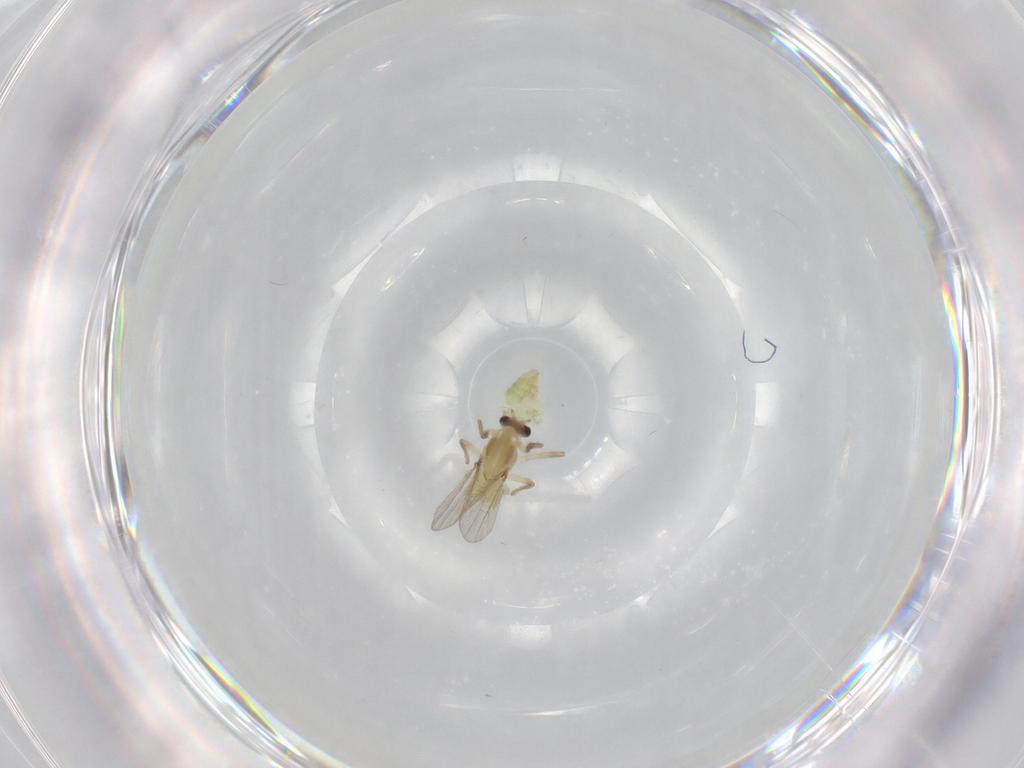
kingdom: Animalia
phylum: Arthropoda
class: Insecta
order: Diptera
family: Chironomidae
